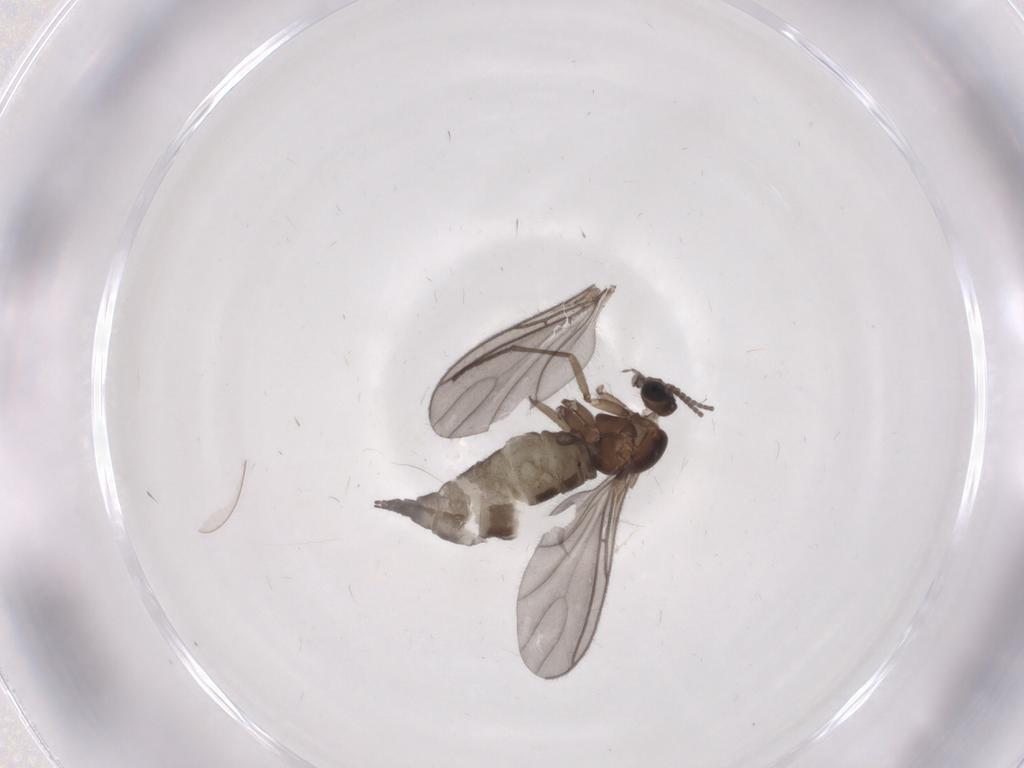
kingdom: Animalia
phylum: Arthropoda
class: Insecta
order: Diptera
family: Sciaridae
